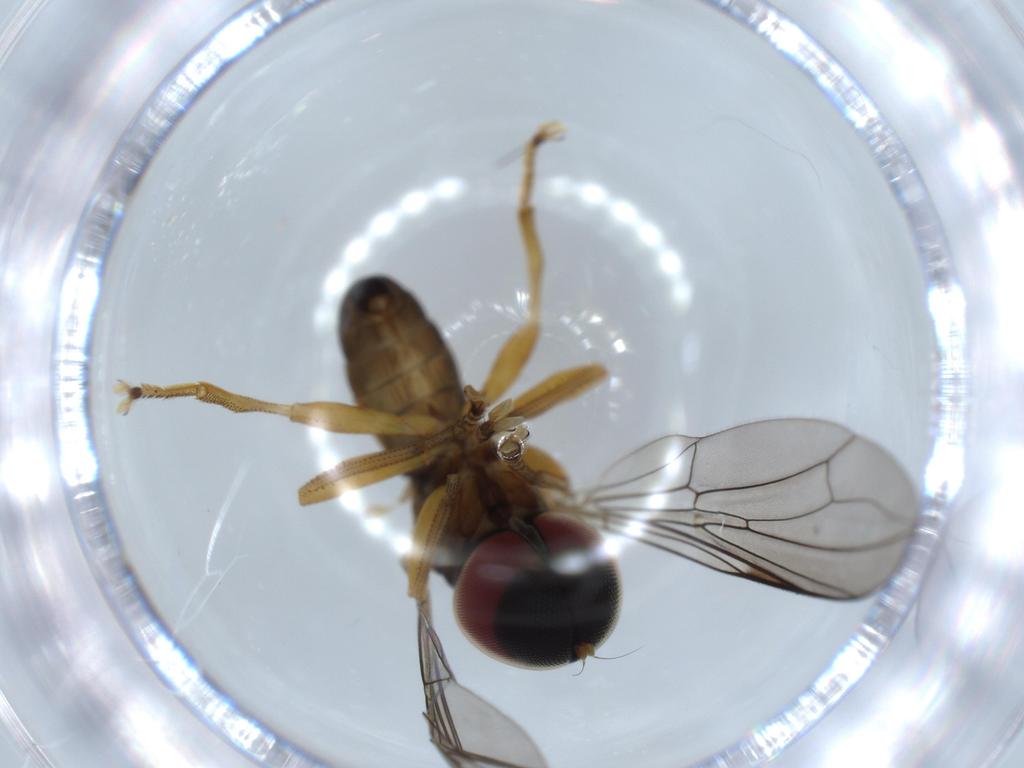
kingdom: Animalia
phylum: Arthropoda
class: Insecta
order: Diptera
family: Pipunculidae
